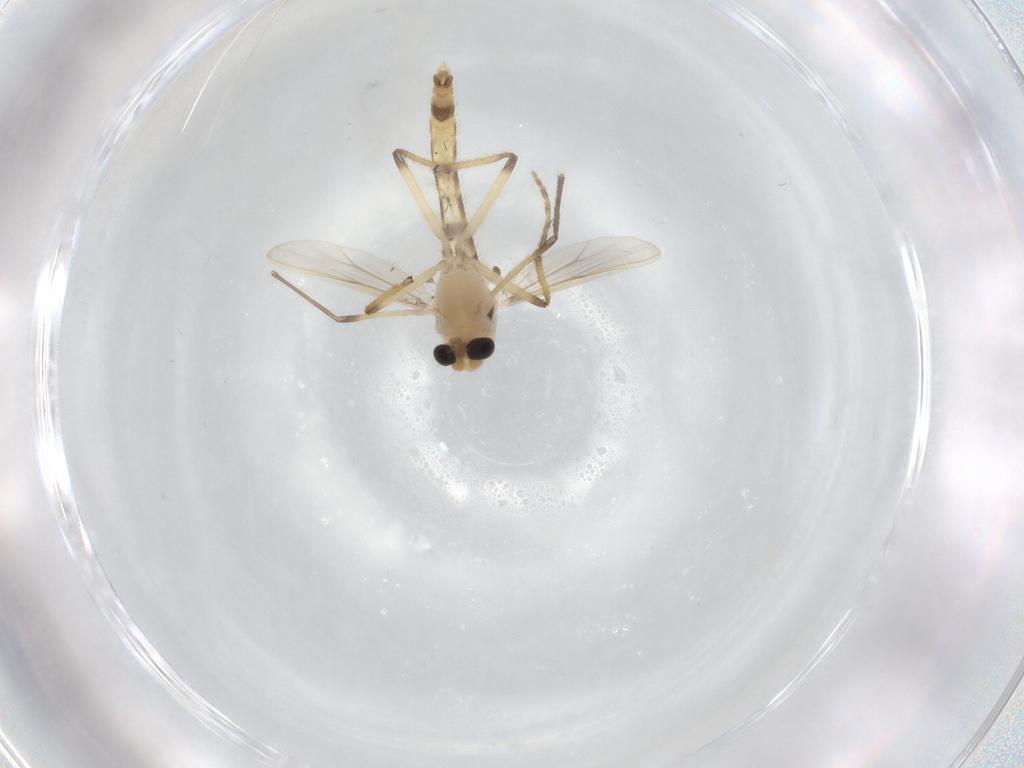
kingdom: Animalia
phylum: Arthropoda
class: Insecta
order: Diptera
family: Chironomidae
